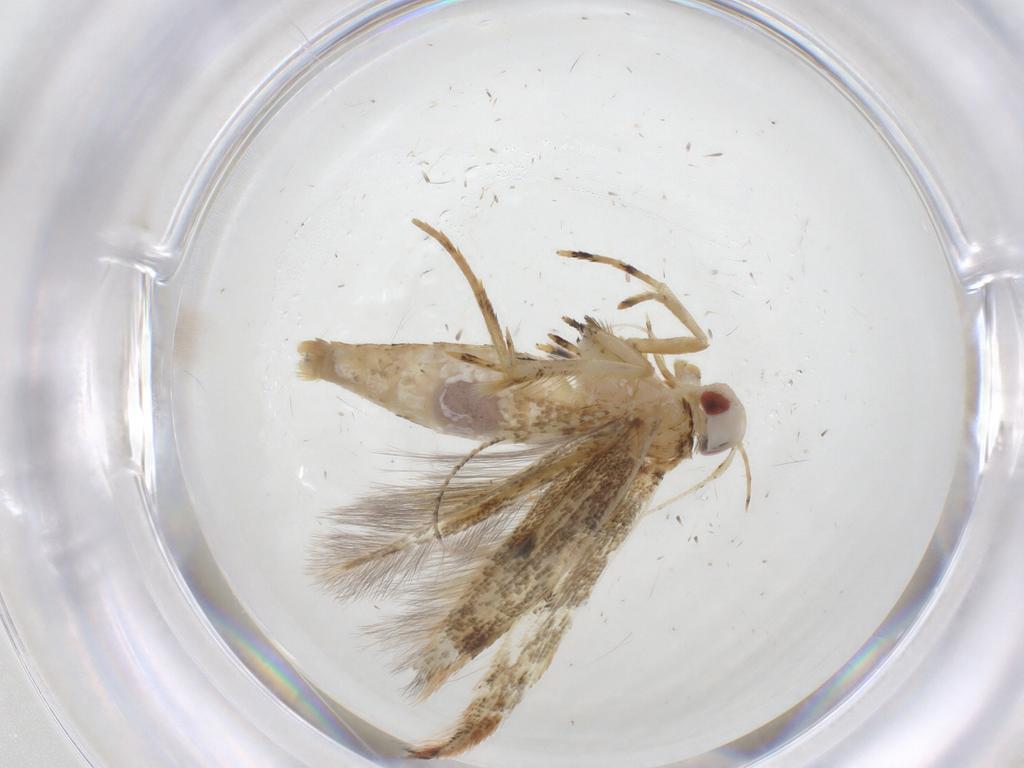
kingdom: Animalia
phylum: Arthropoda
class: Insecta
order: Lepidoptera
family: Cosmopterigidae
